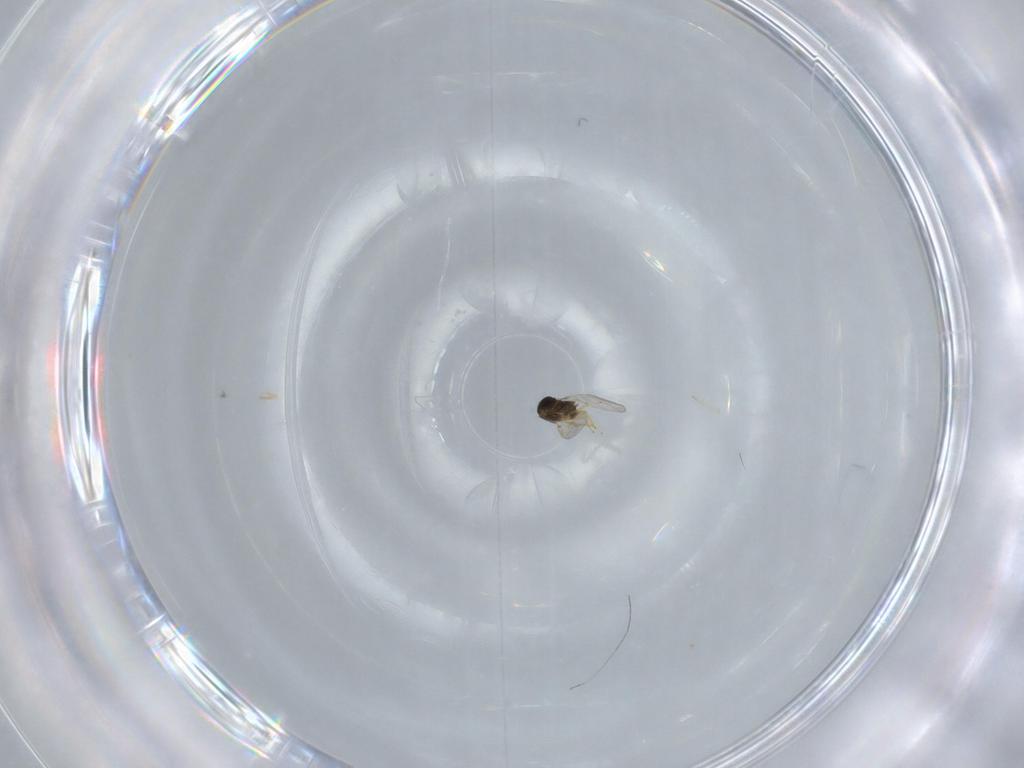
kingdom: Animalia
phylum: Arthropoda
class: Insecta
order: Hymenoptera
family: Encyrtidae
